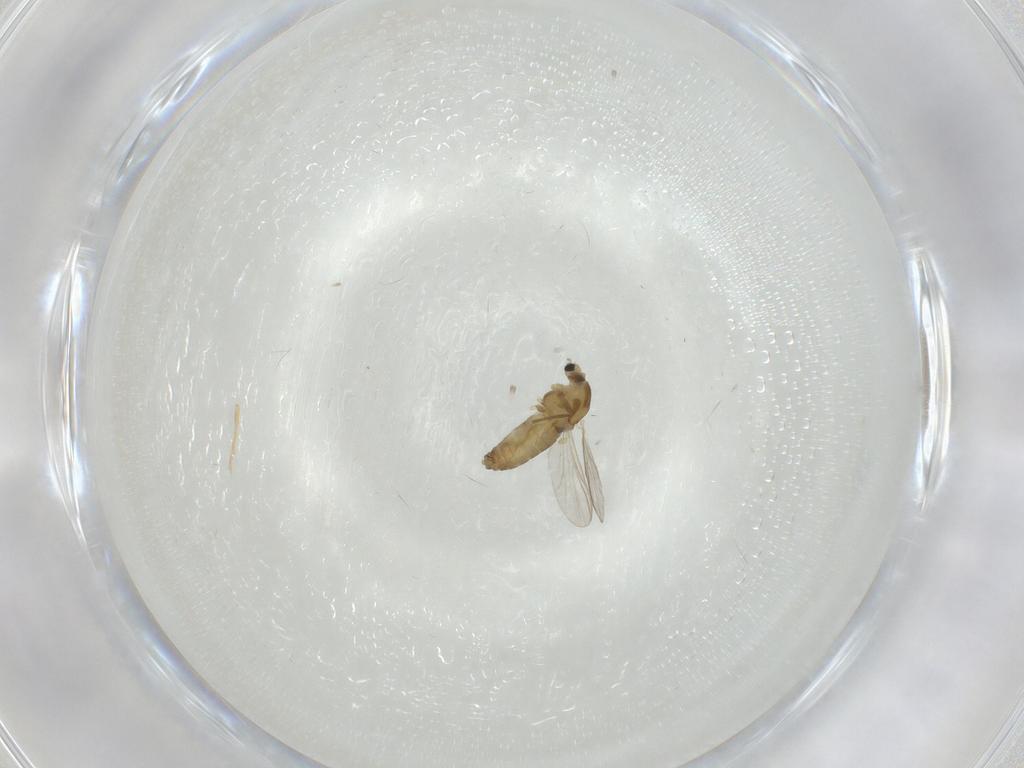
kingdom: Animalia
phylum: Arthropoda
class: Insecta
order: Diptera
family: Chironomidae
